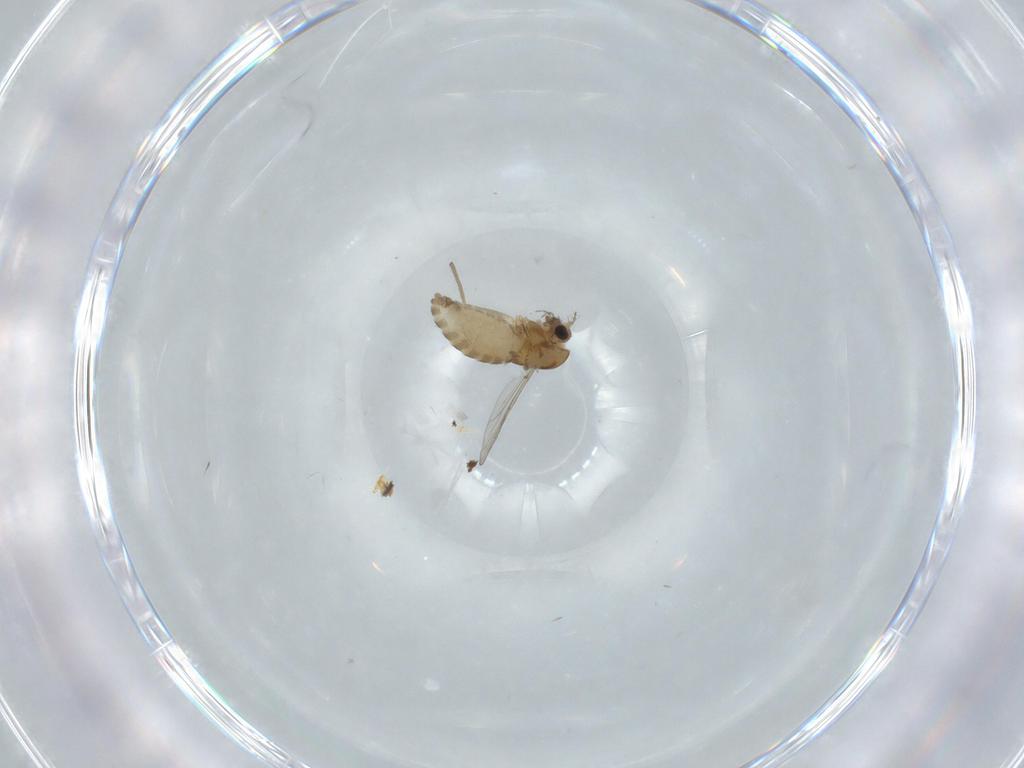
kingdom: Animalia
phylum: Arthropoda
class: Insecta
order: Diptera
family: Chironomidae
